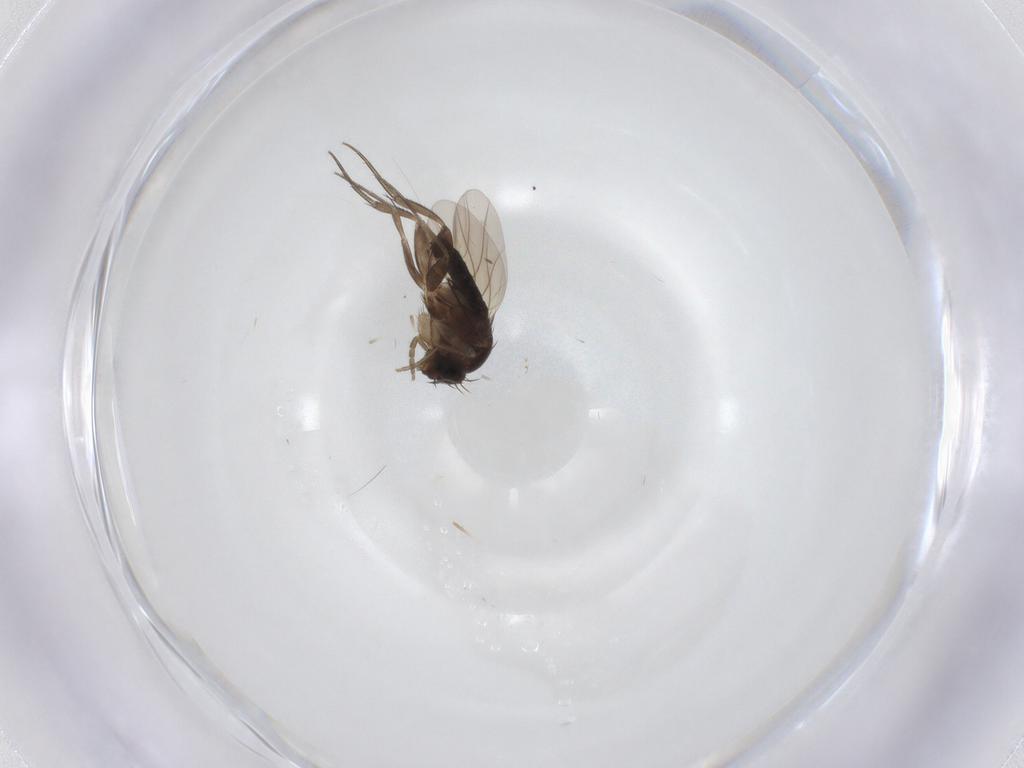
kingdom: Animalia
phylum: Arthropoda
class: Insecta
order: Diptera
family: Phoridae
